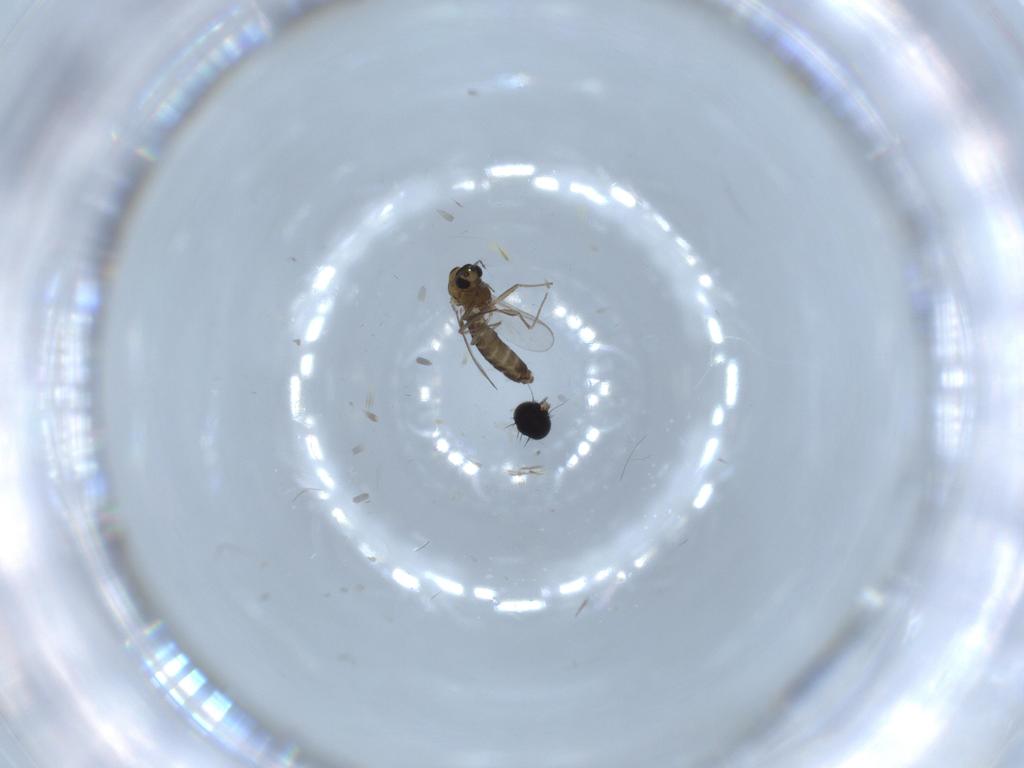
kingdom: Animalia
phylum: Arthropoda
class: Insecta
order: Diptera
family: Chironomidae
